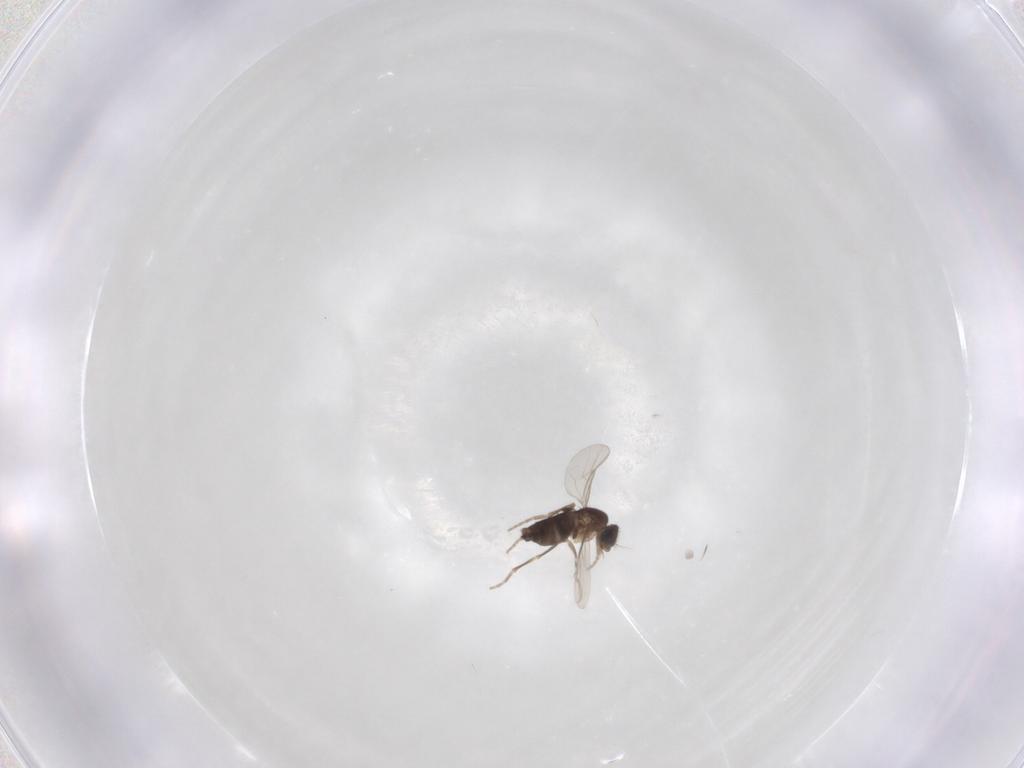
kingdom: Animalia
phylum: Arthropoda
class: Insecta
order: Diptera
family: Phoridae
